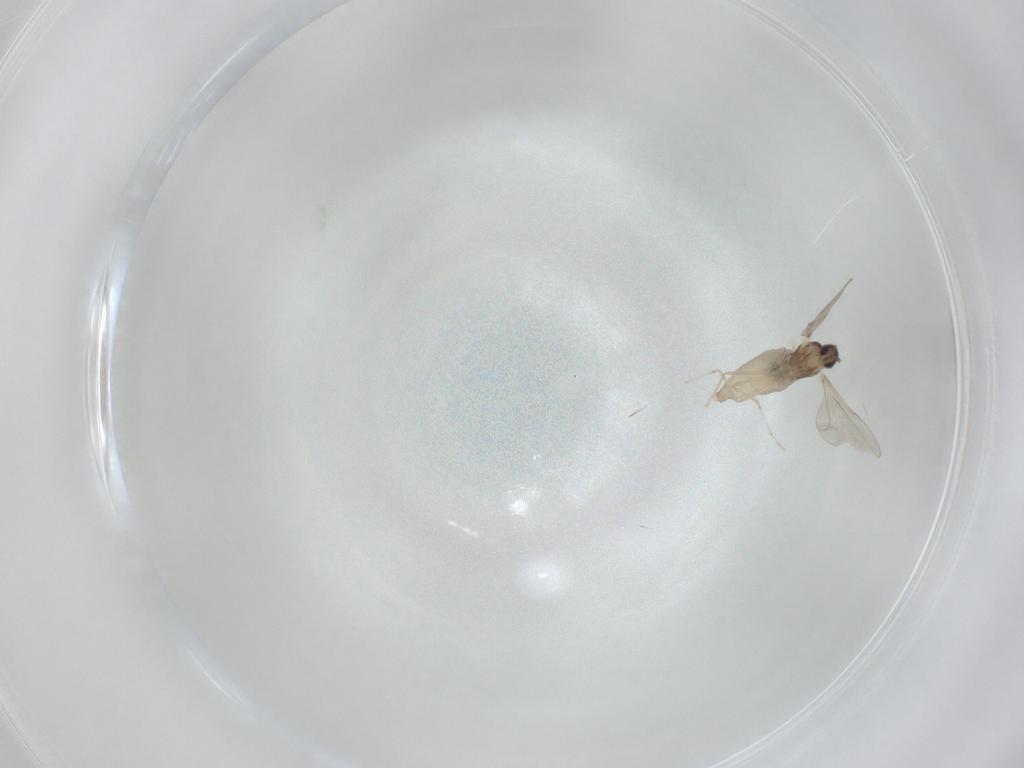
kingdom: Animalia
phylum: Arthropoda
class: Insecta
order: Diptera
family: Cecidomyiidae
